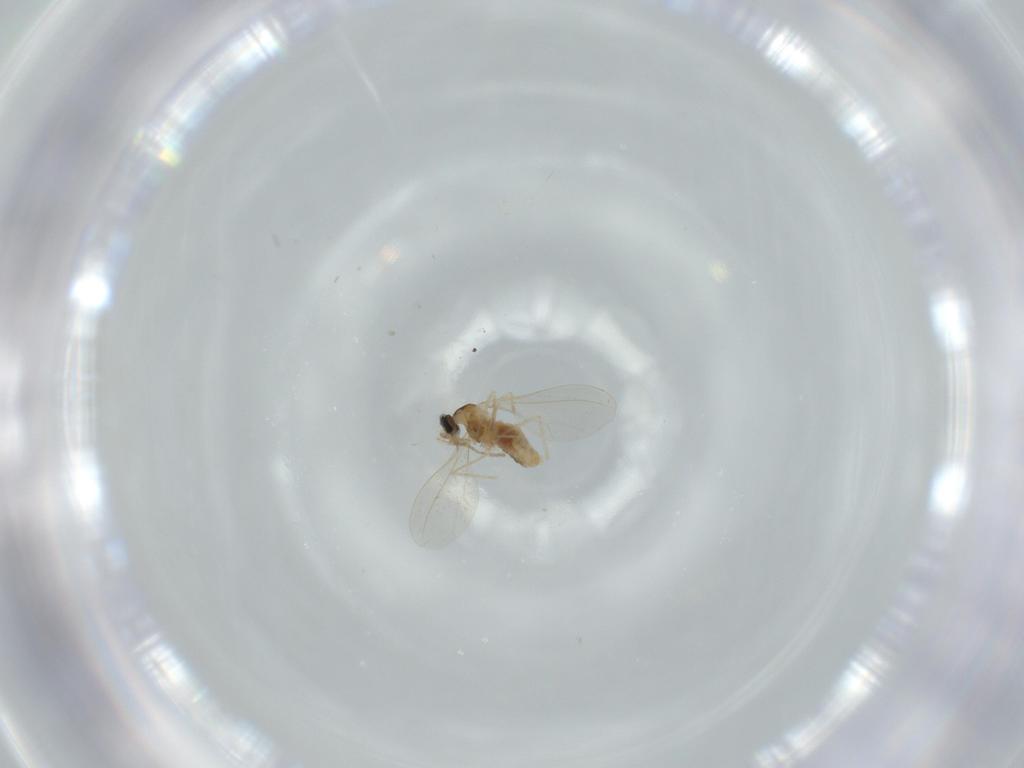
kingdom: Animalia
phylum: Arthropoda
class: Insecta
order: Diptera
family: Cecidomyiidae
